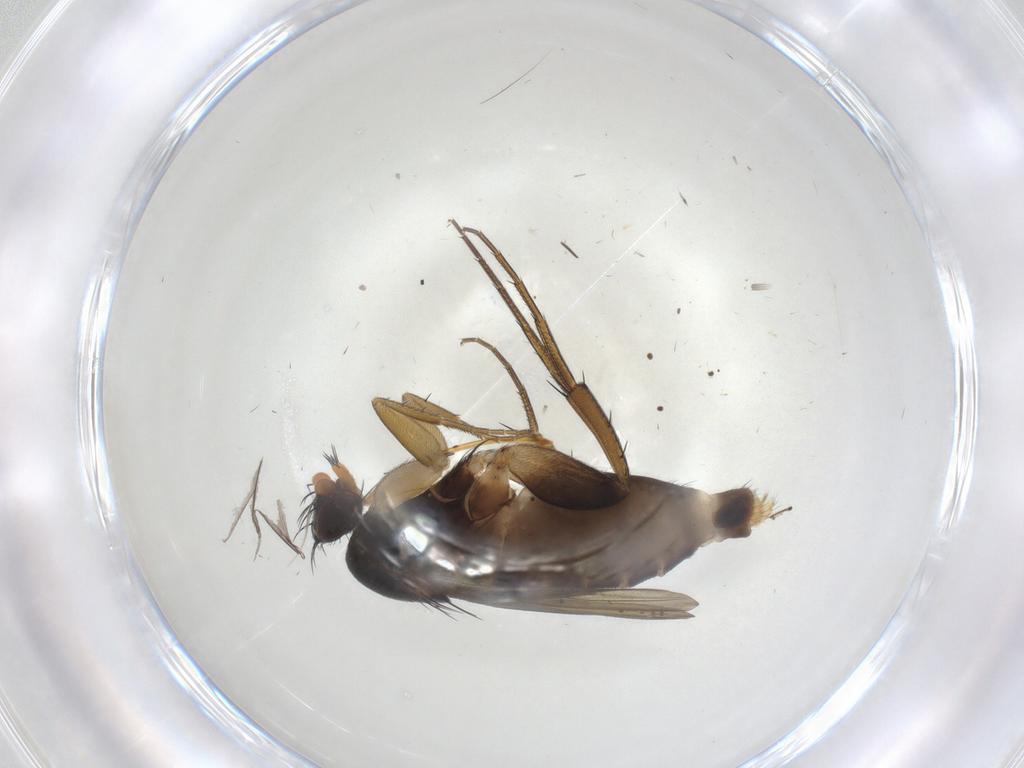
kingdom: Animalia
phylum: Arthropoda
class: Insecta
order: Diptera
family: Phoridae
